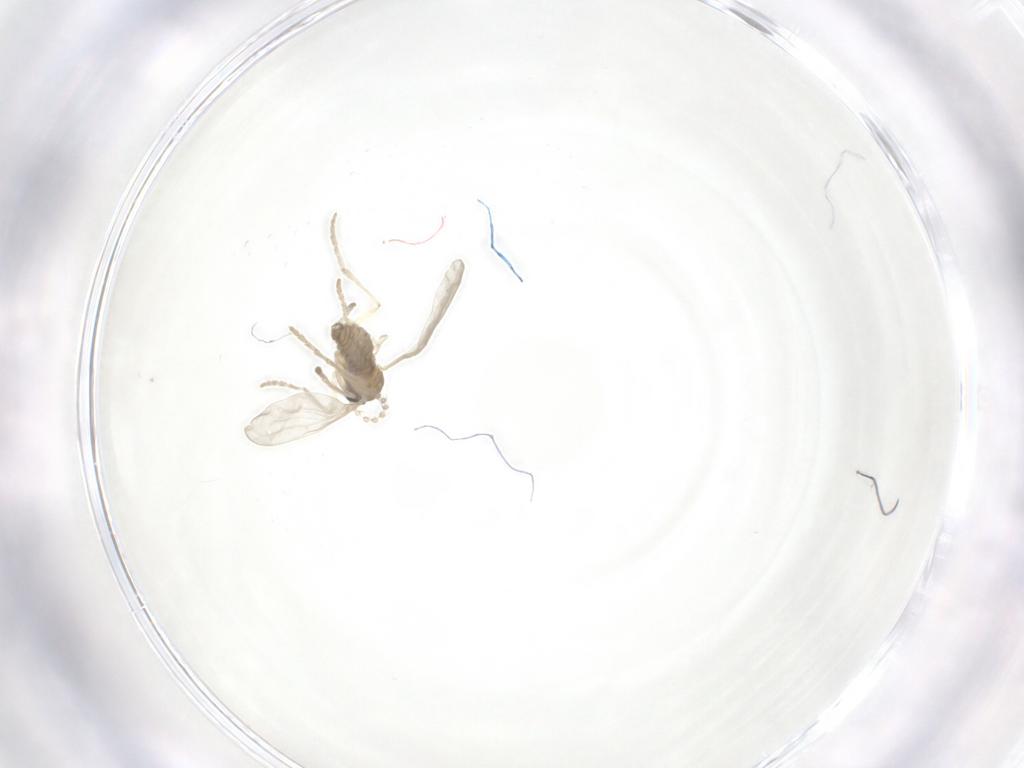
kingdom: Animalia
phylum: Arthropoda
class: Insecta
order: Diptera
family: Cecidomyiidae
